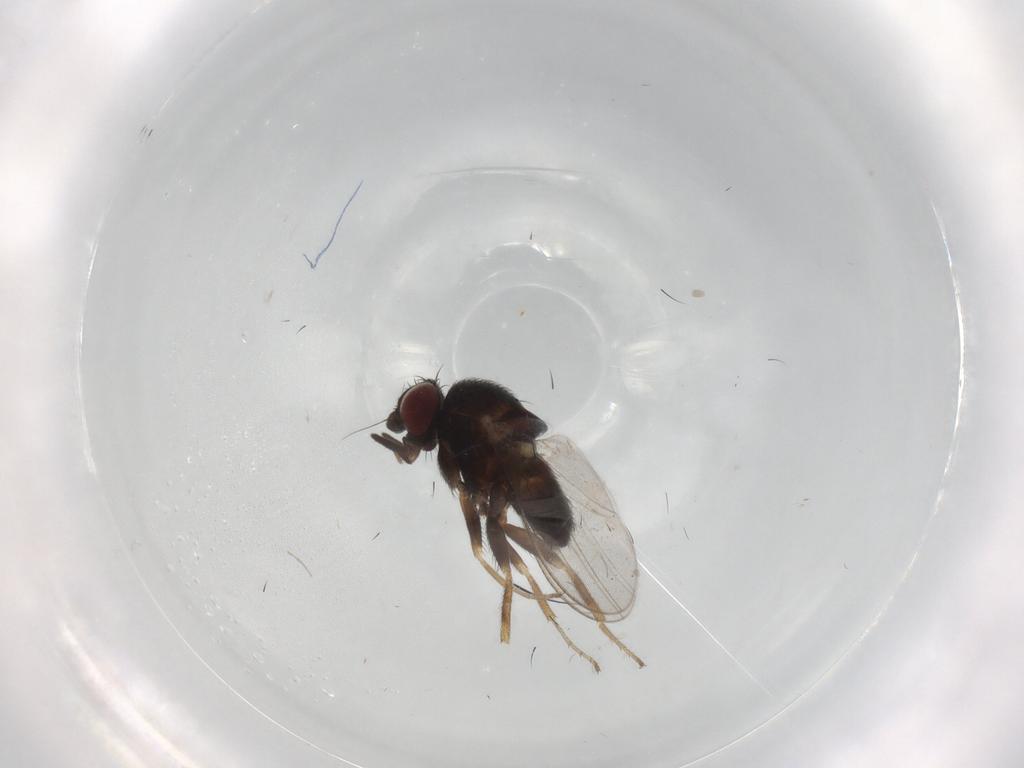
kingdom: Animalia
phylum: Arthropoda
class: Insecta
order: Diptera
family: Milichiidae
